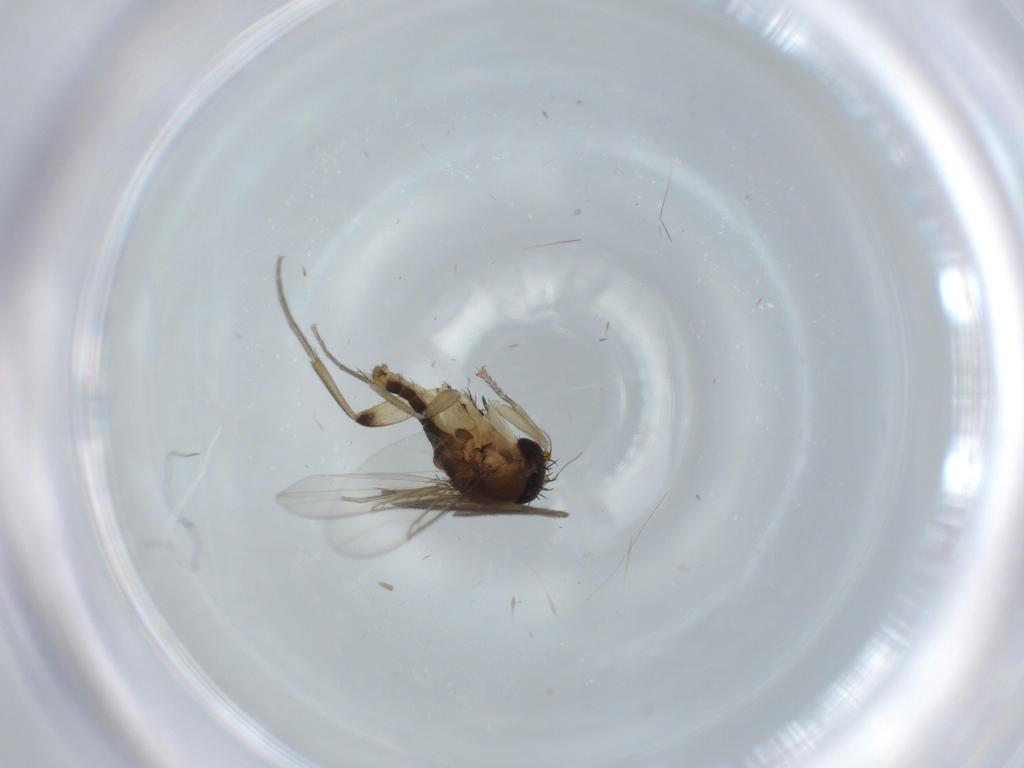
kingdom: Animalia
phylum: Arthropoda
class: Insecta
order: Diptera
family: Phoridae
